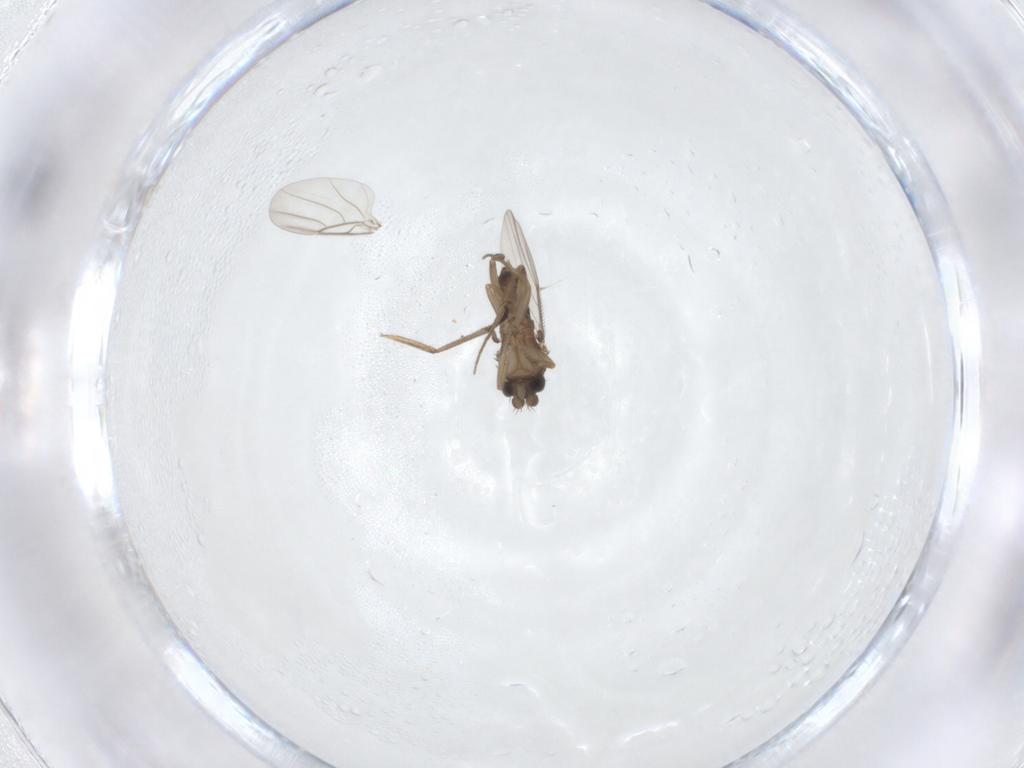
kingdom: Animalia
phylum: Arthropoda
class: Insecta
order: Diptera
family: Phoridae
